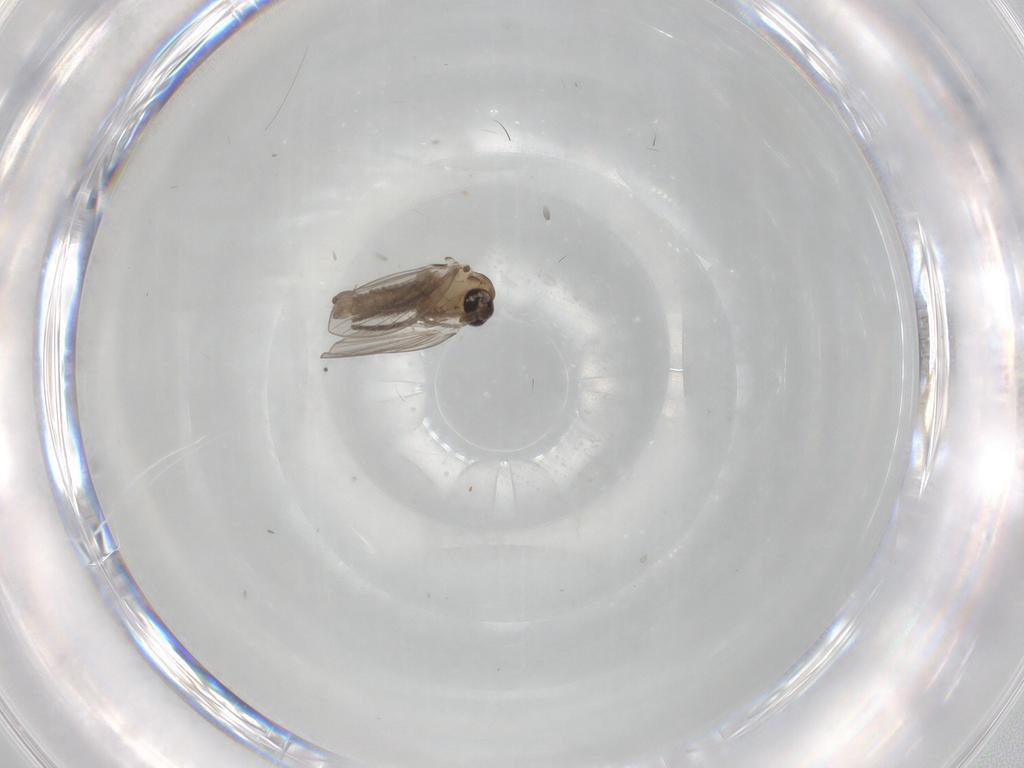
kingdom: Animalia
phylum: Arthropoda
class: Insecta
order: Diptera
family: Drosophilidae
